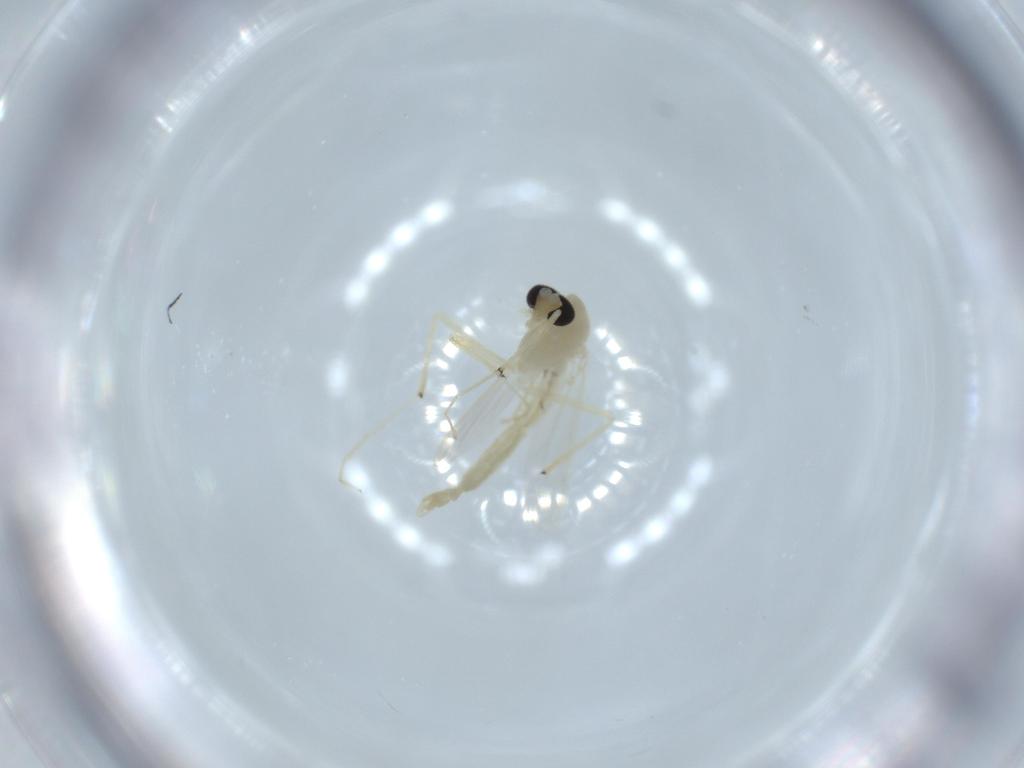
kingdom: Animalia
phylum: Arthropoda
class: Insecta
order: Diptera
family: Chironomidae
